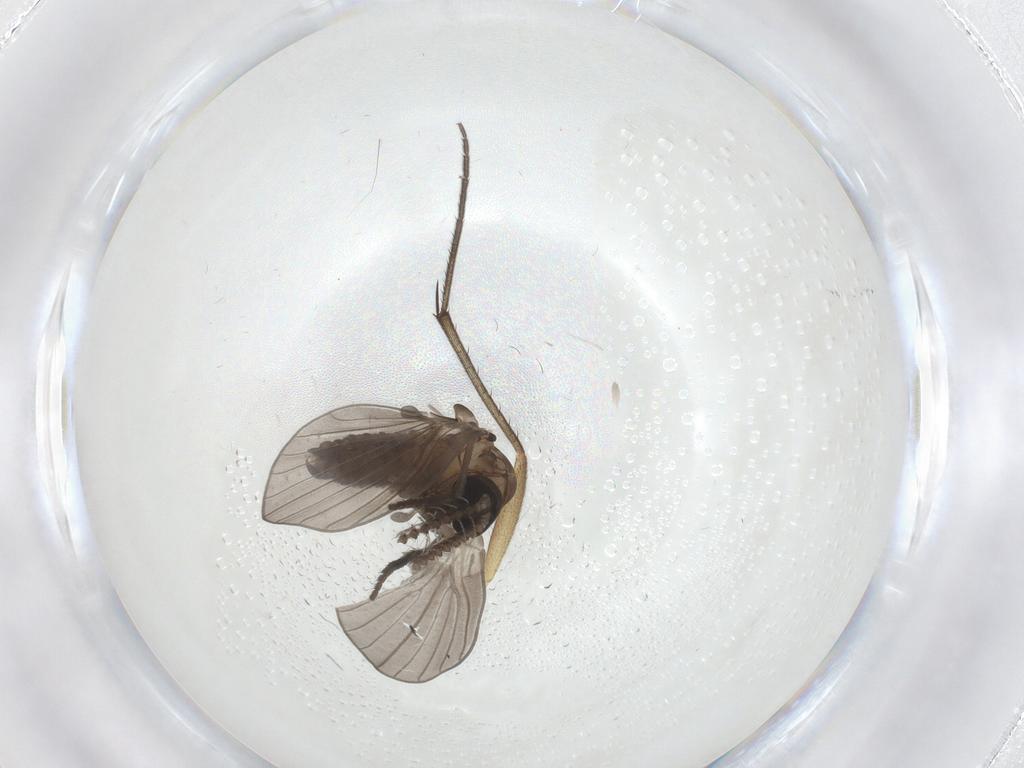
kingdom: Animalia
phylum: Arthropoda
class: Insecta
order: Diptera
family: Psychodidae
